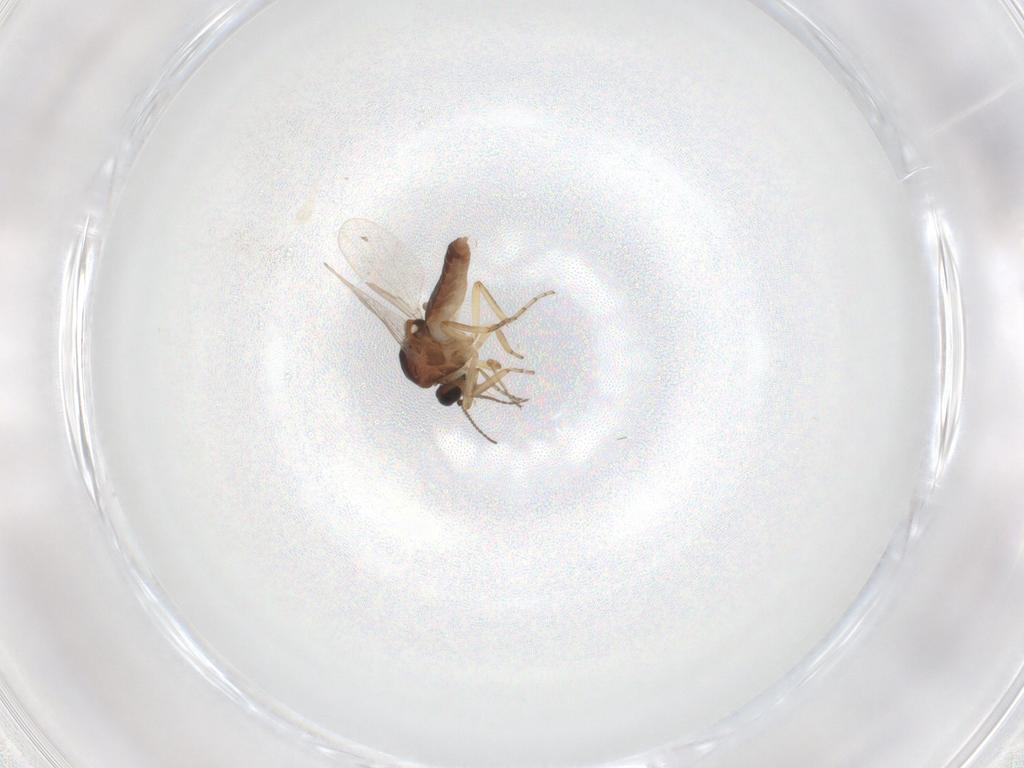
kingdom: Animalia
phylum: Arthropoda
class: Insecta
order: Diptera
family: Ceratopogonidae
